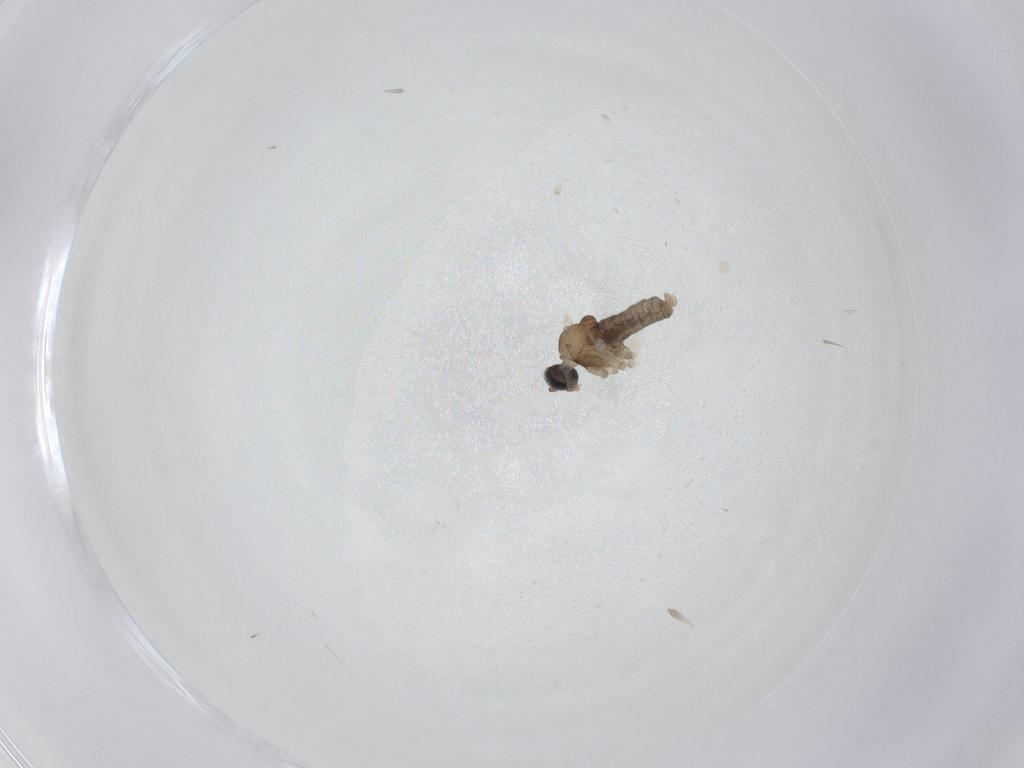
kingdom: Animalia
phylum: Arthropoda
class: Insecta
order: Diptera
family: Cecidomyiidae
